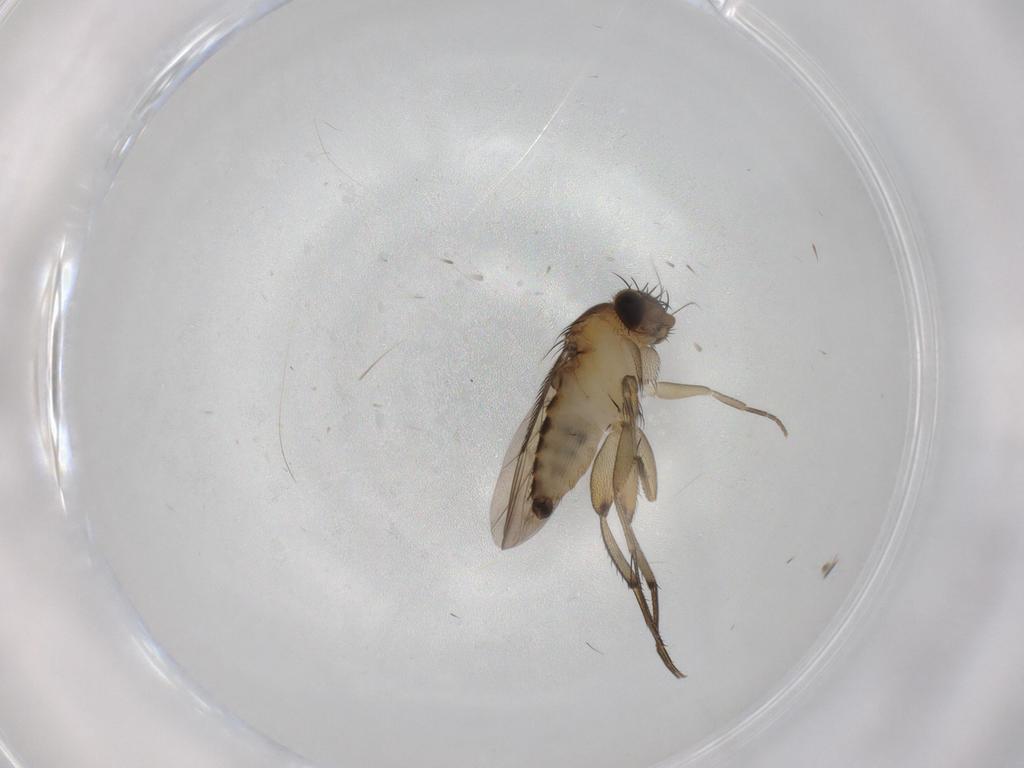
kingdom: Animalia
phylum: Arthropoda
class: Insecta
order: Diptera
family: Phoridae
